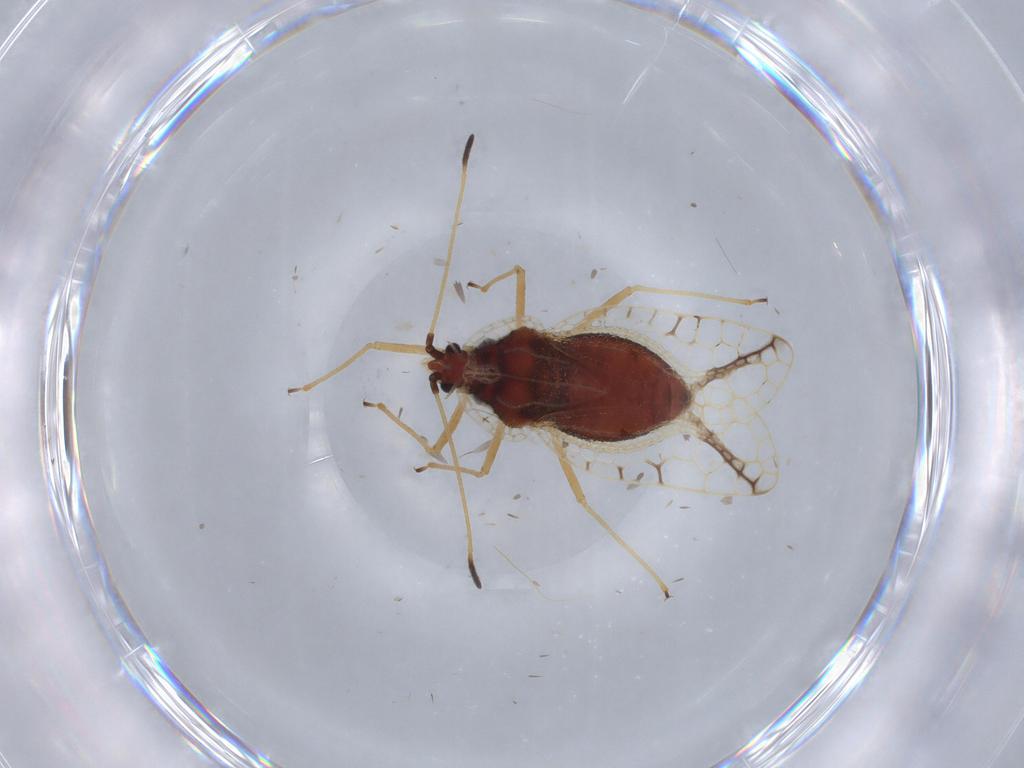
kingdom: Animalia
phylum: Arthropoda
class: Insecta
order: Hemiptera
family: Tingidae
